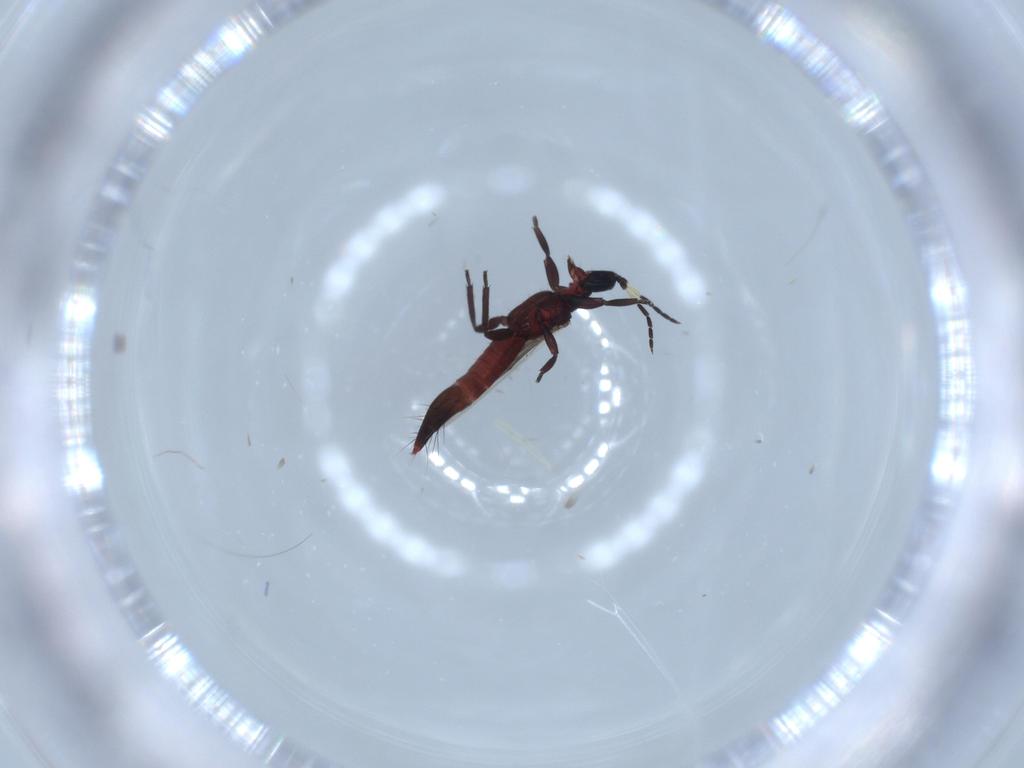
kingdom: Animalia
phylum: Arthropoda
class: Insecta
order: Thysanoptera
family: Aeolothripidae
